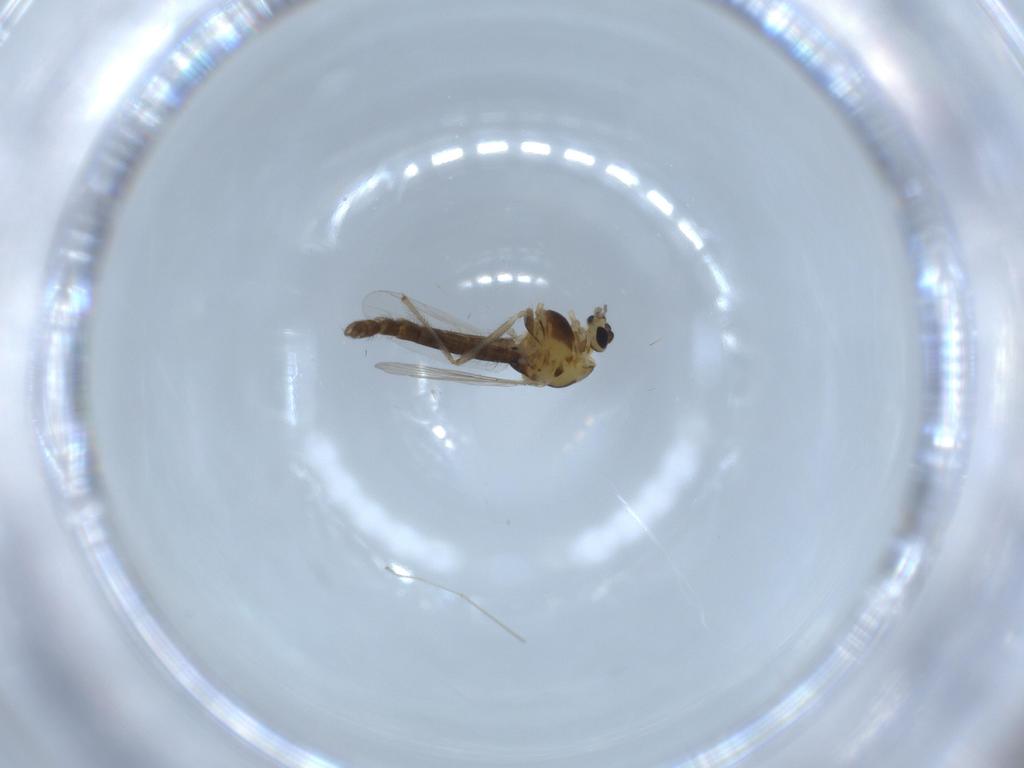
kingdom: Animalia
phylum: Arthropoda
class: Insecta
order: Diptera
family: Chironomidae
